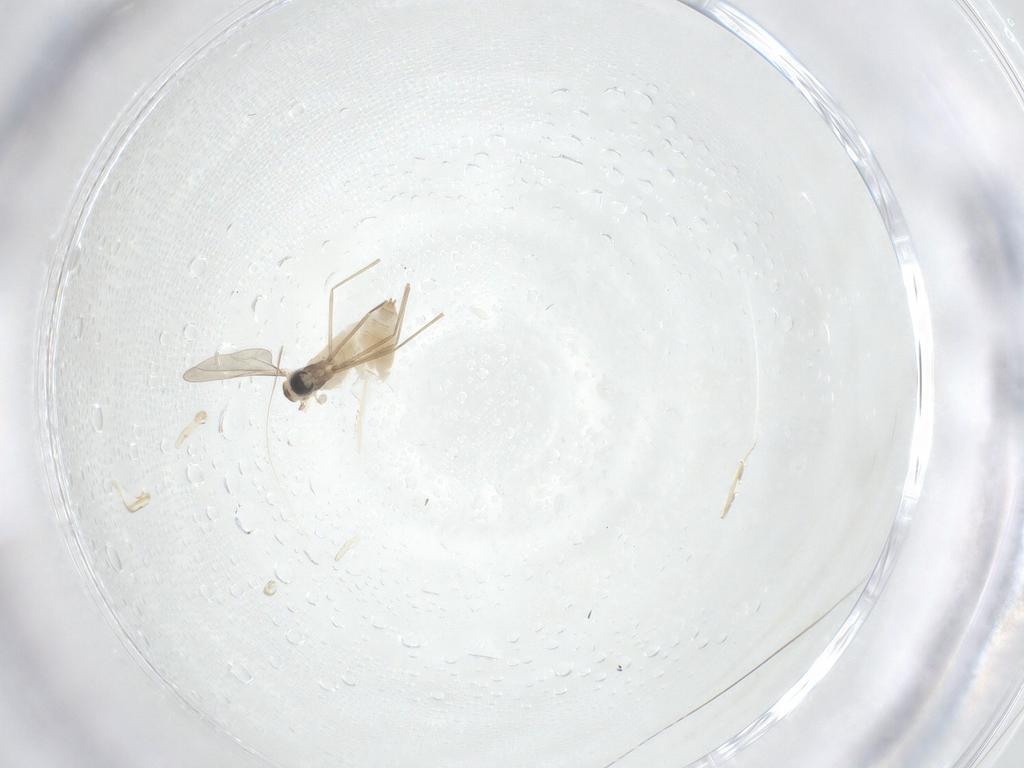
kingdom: Animalia
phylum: Arthropoda
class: Insecta
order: Diptera
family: Cecidomyiidae
